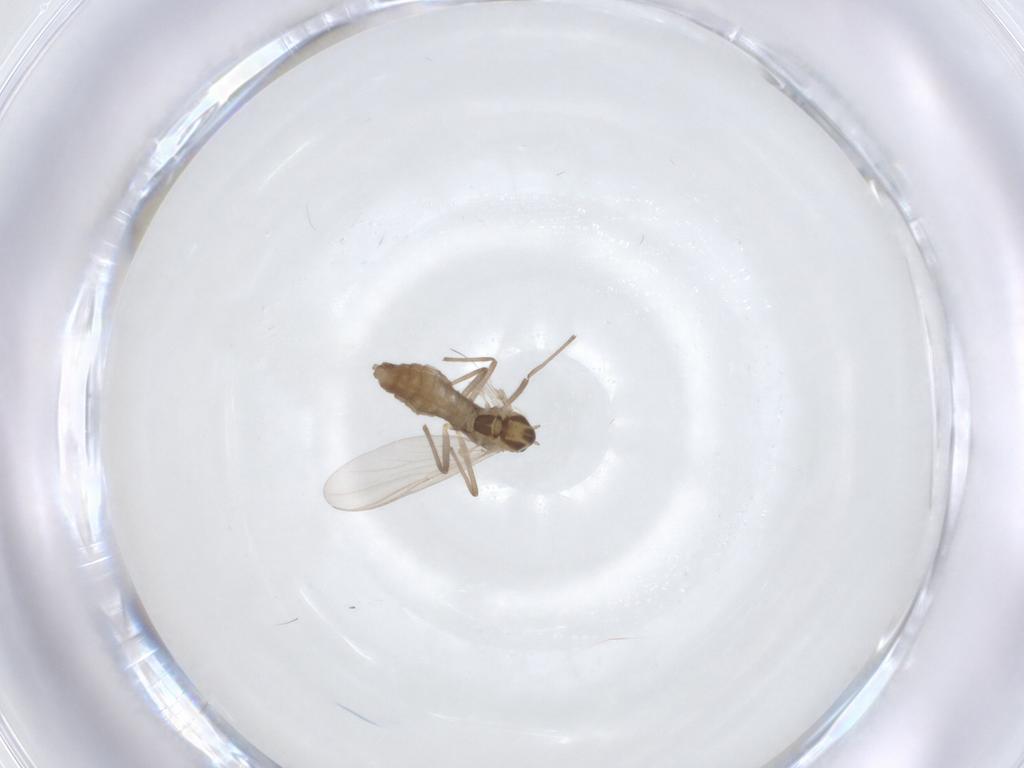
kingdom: Animalia
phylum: Arthropoda
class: Insecta
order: Diptera
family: Chironomidae
